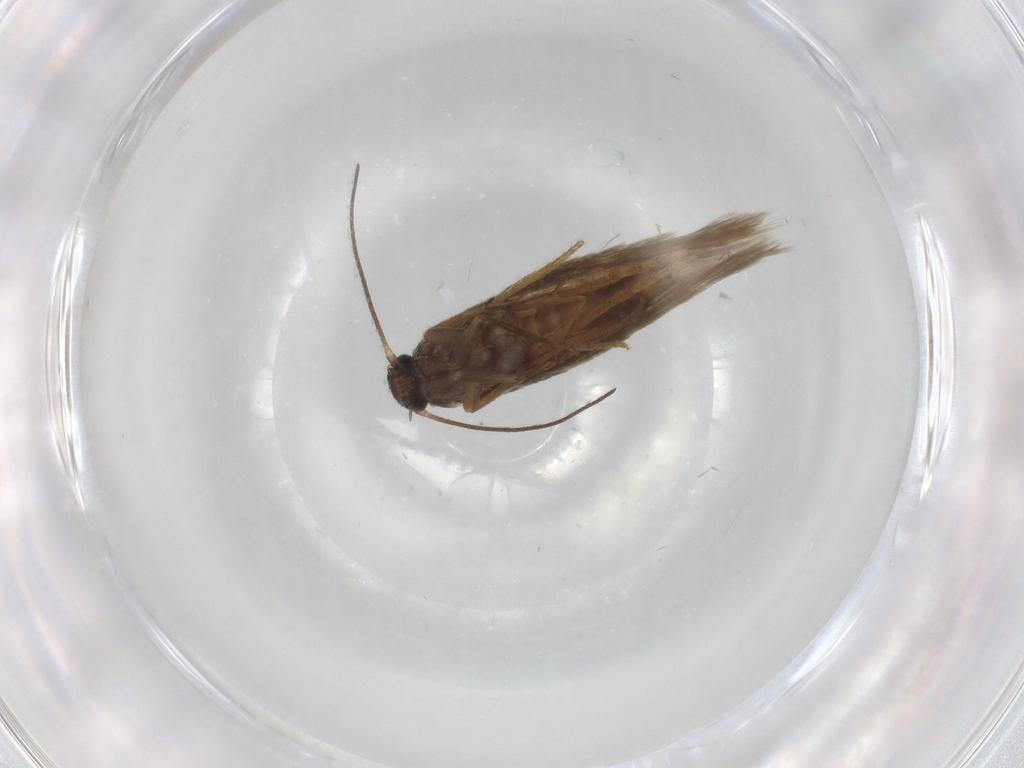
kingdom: Animalia
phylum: Arthropoda
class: Insecta
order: Lepidoptera
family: Heliozelidae
